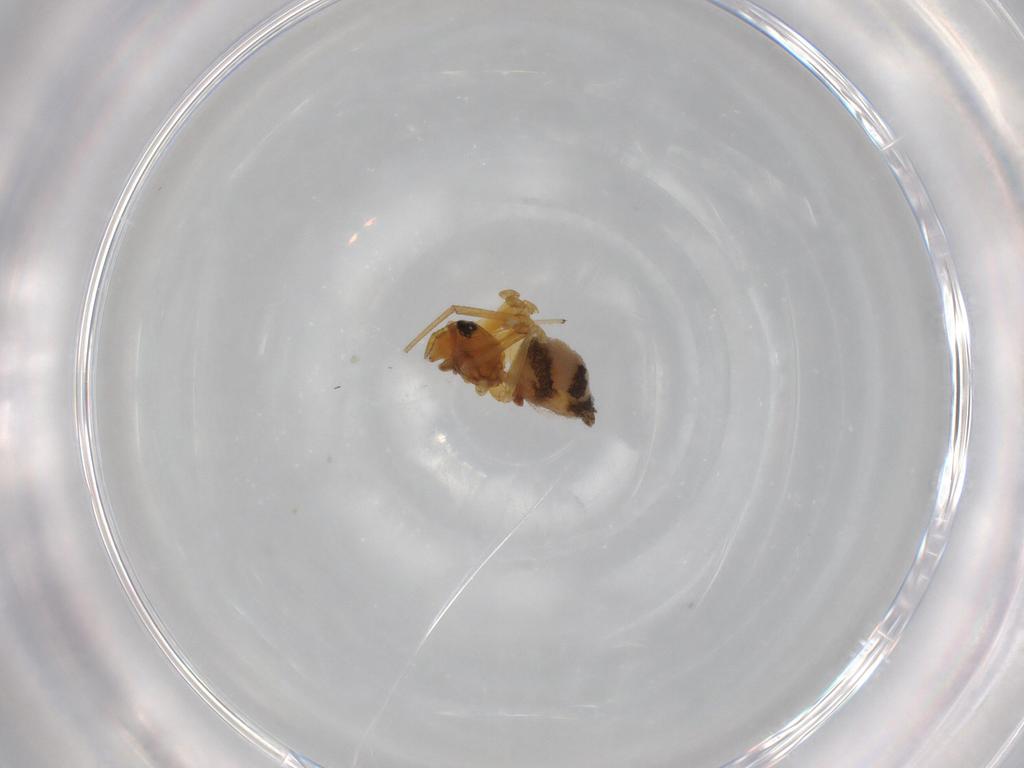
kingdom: Animalia
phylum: Arthropoda
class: Arachnida
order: Araneae
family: Linyphiidae
